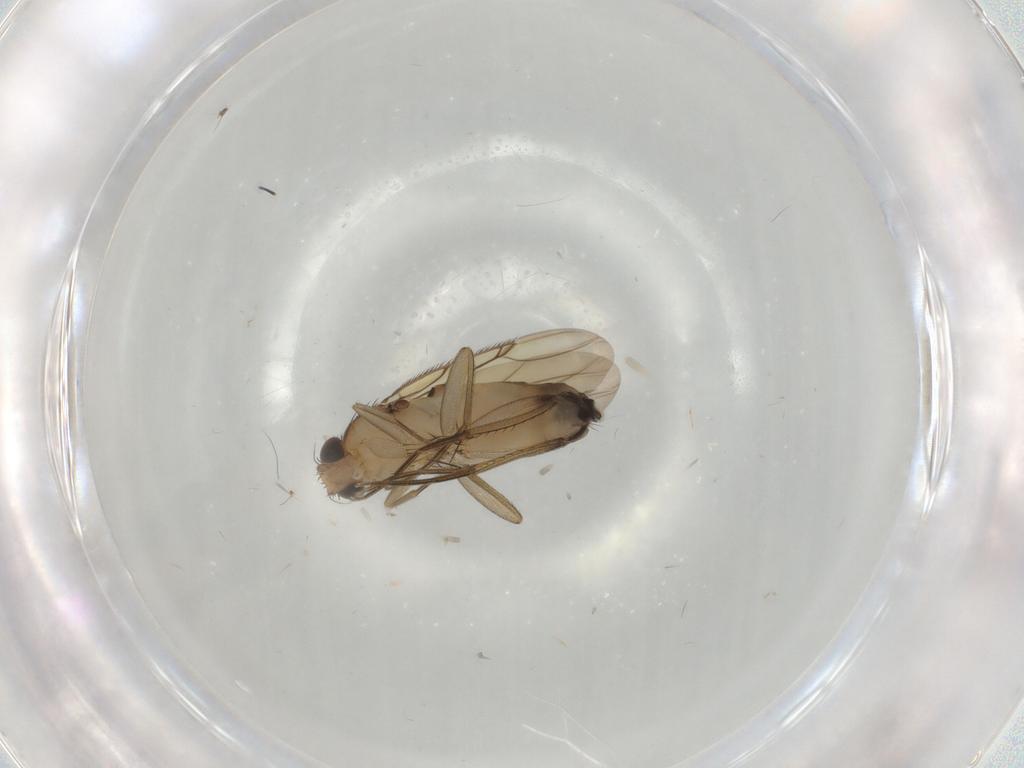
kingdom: Animalia
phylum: Arthropoda
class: Insecta
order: Diptera
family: Phoridae
